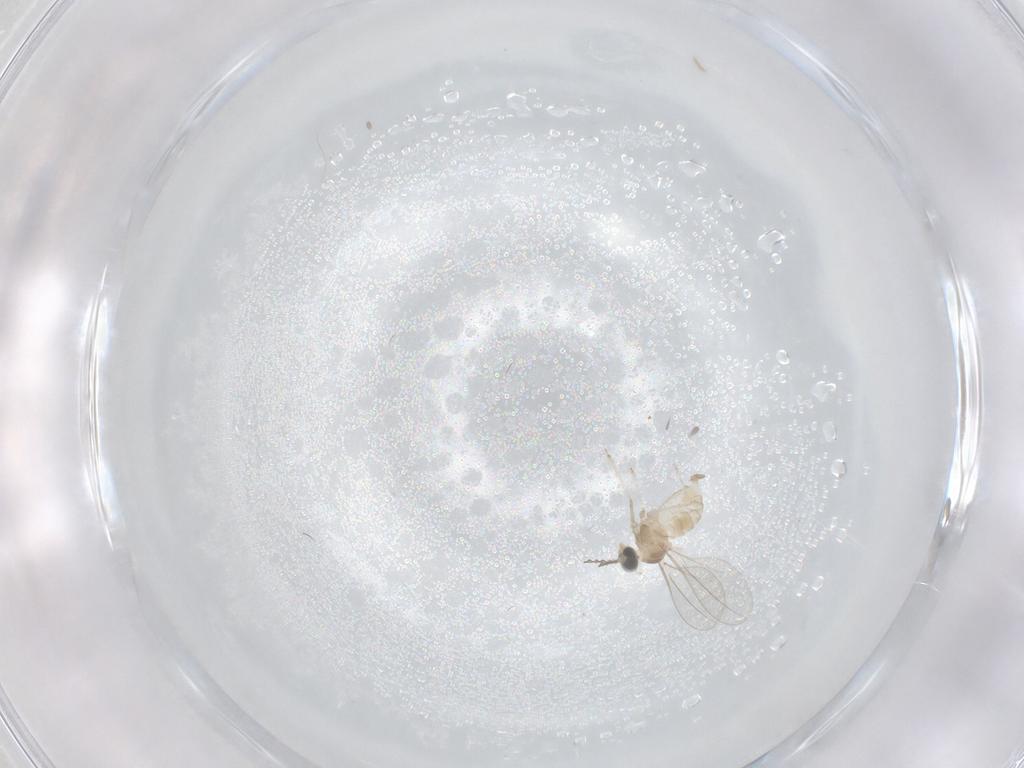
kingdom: Animalia
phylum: Arthropoda
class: Insecta
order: Diptera
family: Cecidomyiidae
